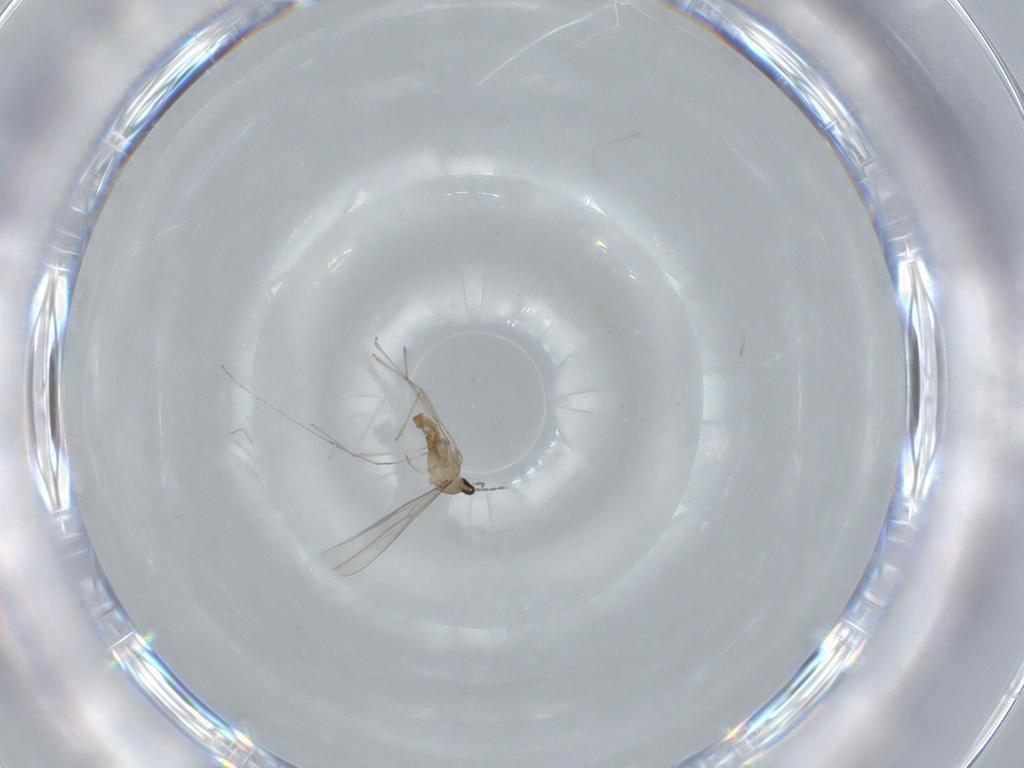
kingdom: Animalia
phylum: Arthropoda
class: Insecta
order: Diptera
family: Cecidomyiidae
